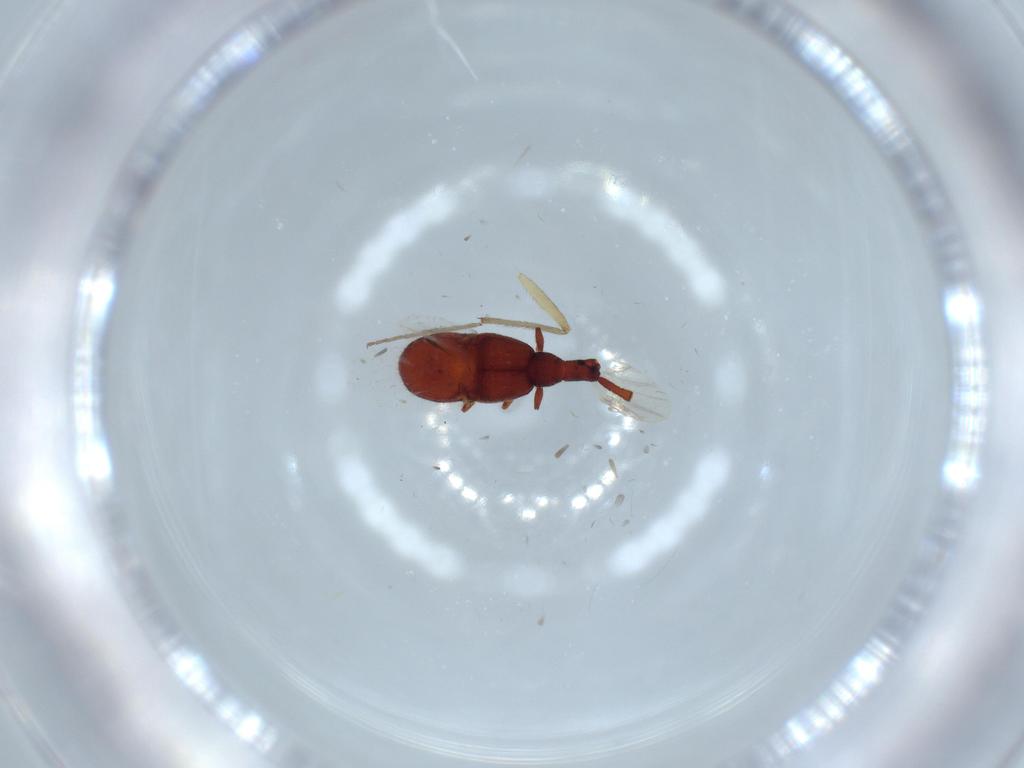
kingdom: Animalia
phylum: Arthropoda
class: Insecta
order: Coleoptera
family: Staphylinidae
